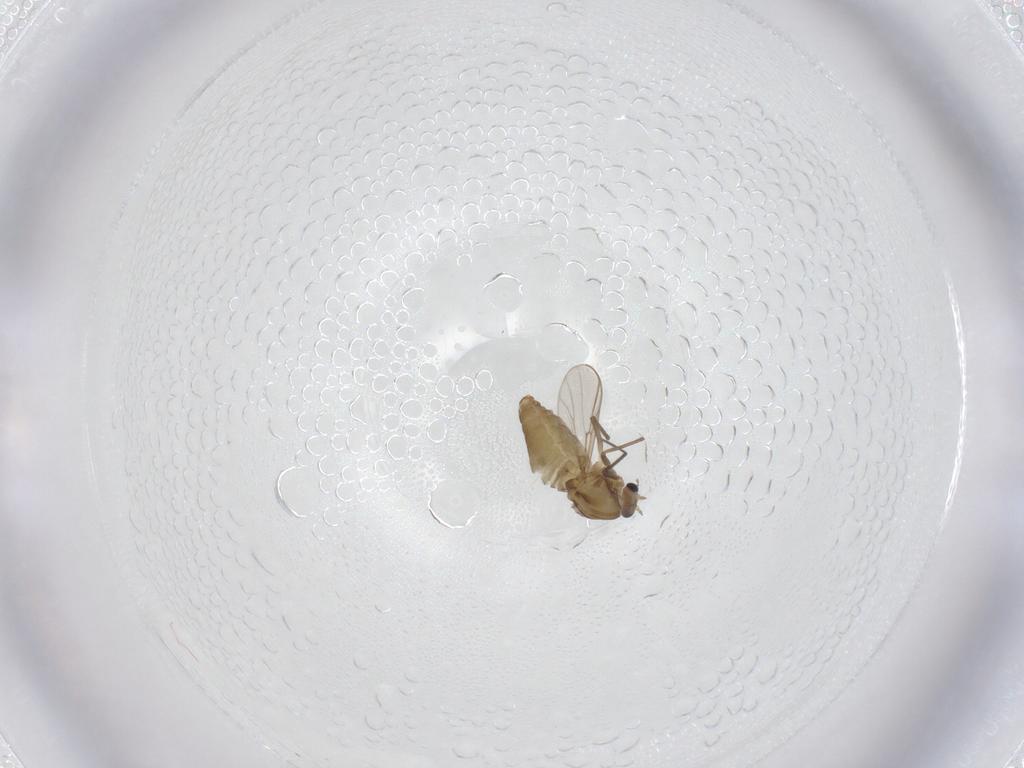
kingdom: Animalia
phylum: Arthropoda
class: Insecta
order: Diptera
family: Chironomidae
